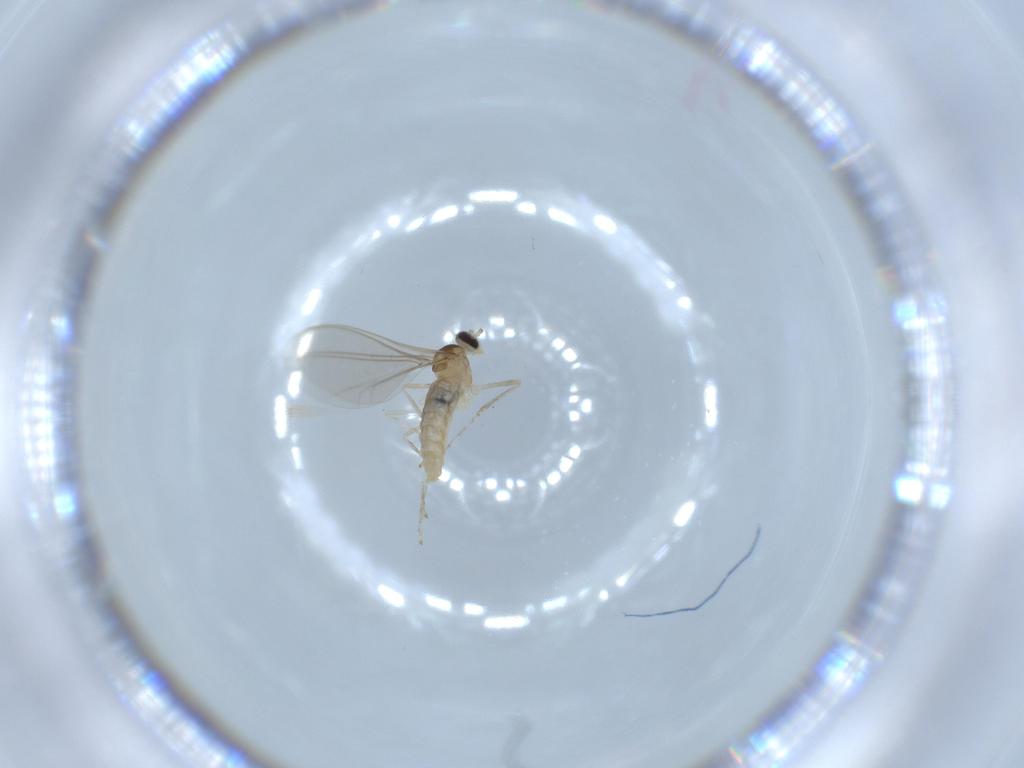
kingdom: Animalia
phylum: Arthropoda
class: Insecta
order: Diptera
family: Cecidomyiidae
